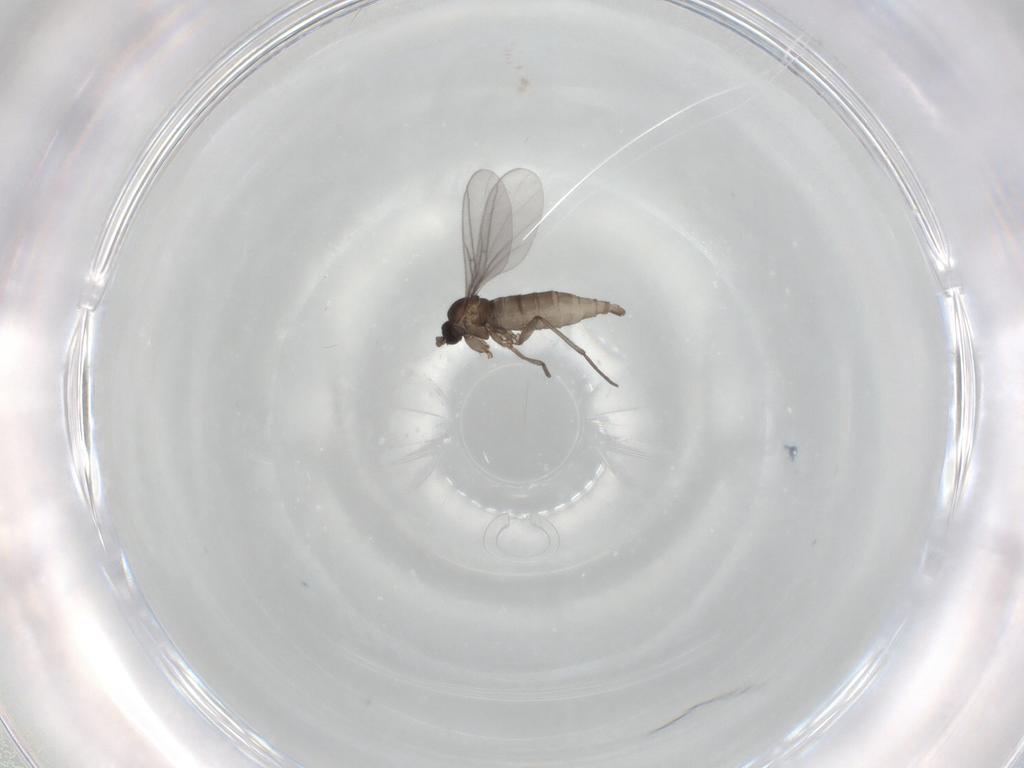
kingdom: Animalia
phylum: Arthropoda
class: Insecta
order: Diptera
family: Sciaridae
